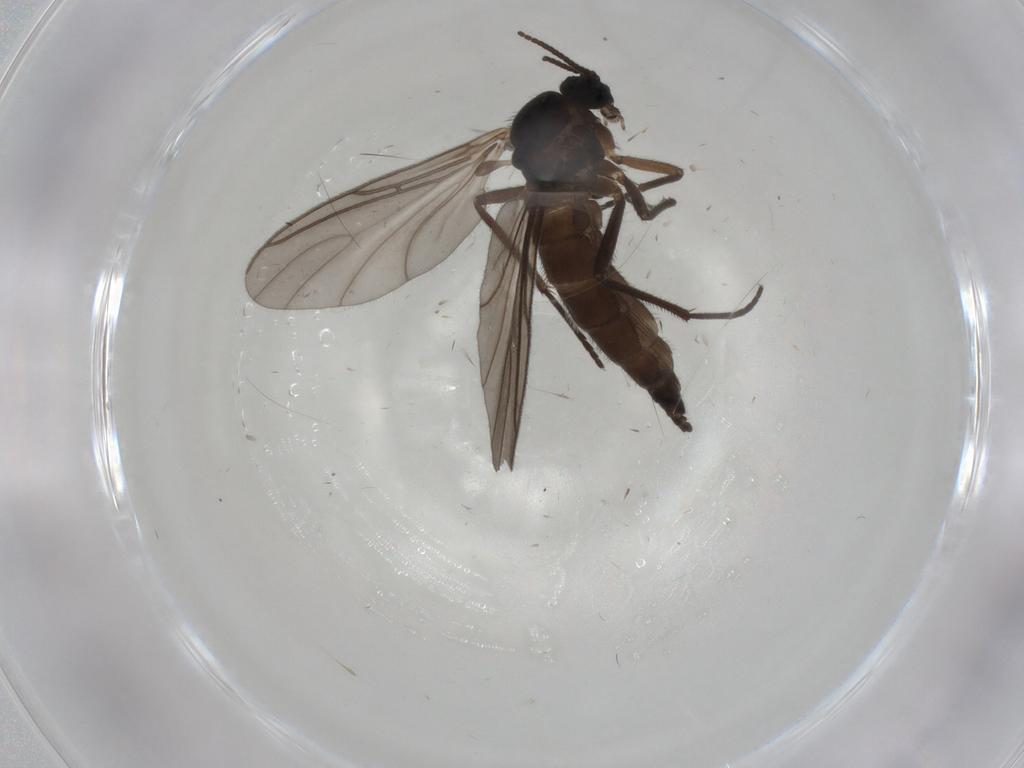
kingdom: Animalia
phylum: Arthropoda
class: Insecta
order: Diptera
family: Sciaridae
